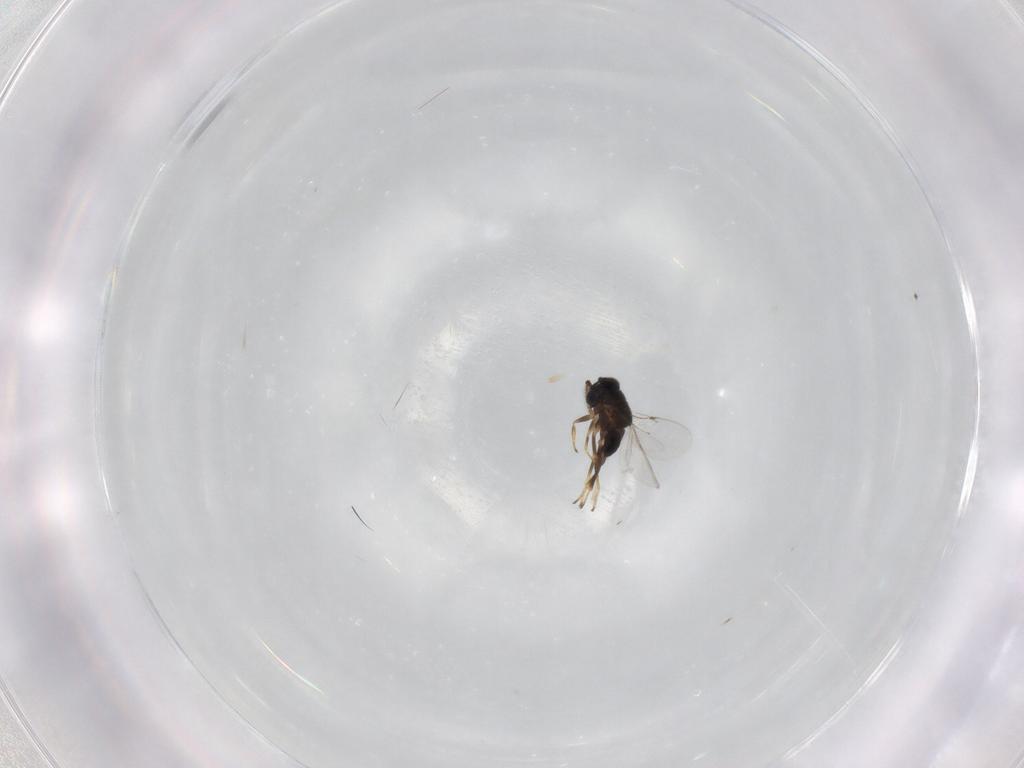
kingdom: Animalia
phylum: Arthropoda
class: Insecta
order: Hymenoptera
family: Encyrtidae
